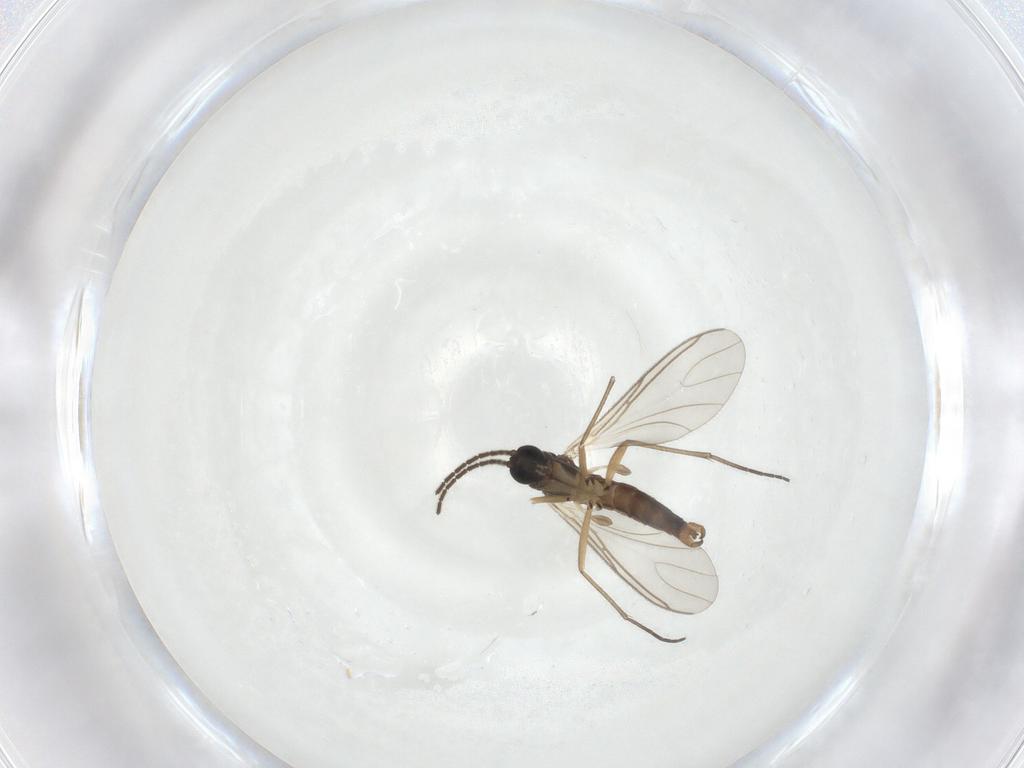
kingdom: Animalia
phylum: Arthropoda
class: Insecta
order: Diptera
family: Sciaridae
